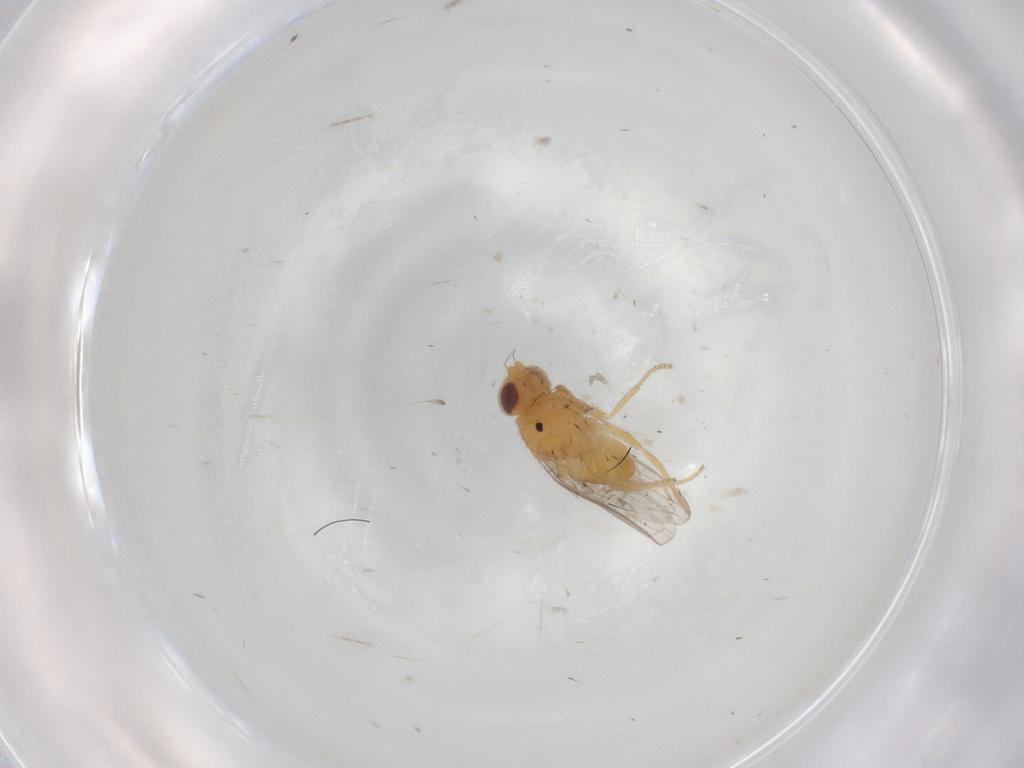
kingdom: Animalia
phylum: Arthropoda
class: Insecta
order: Diptera
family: Chloropidae
